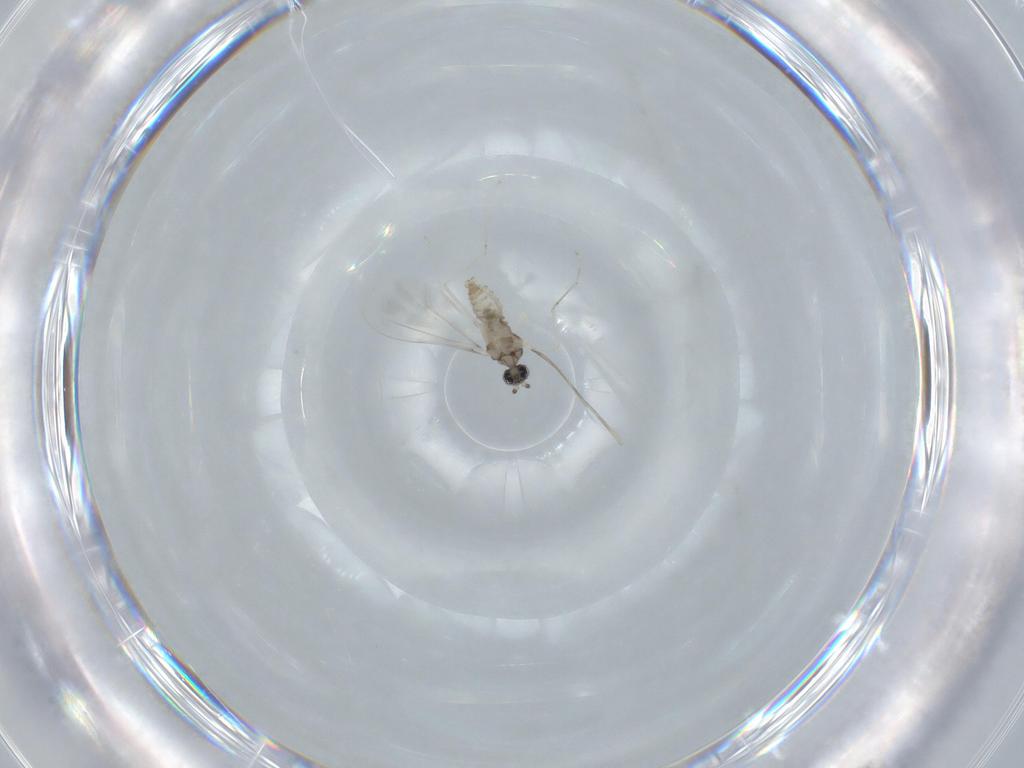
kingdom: Animalia
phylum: Arthropoda
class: Insecta
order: Diptera
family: Cecidomyiidae
